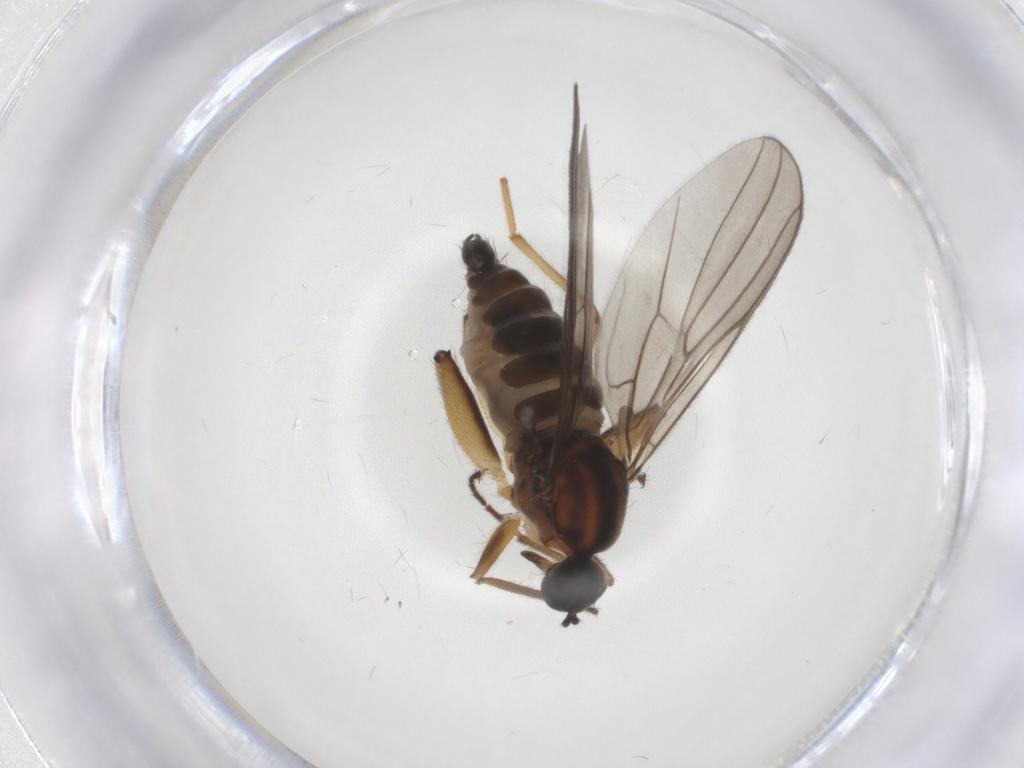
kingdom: Animalia
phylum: Arthropoda
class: Insecta
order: Diptera
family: Hybotidae
